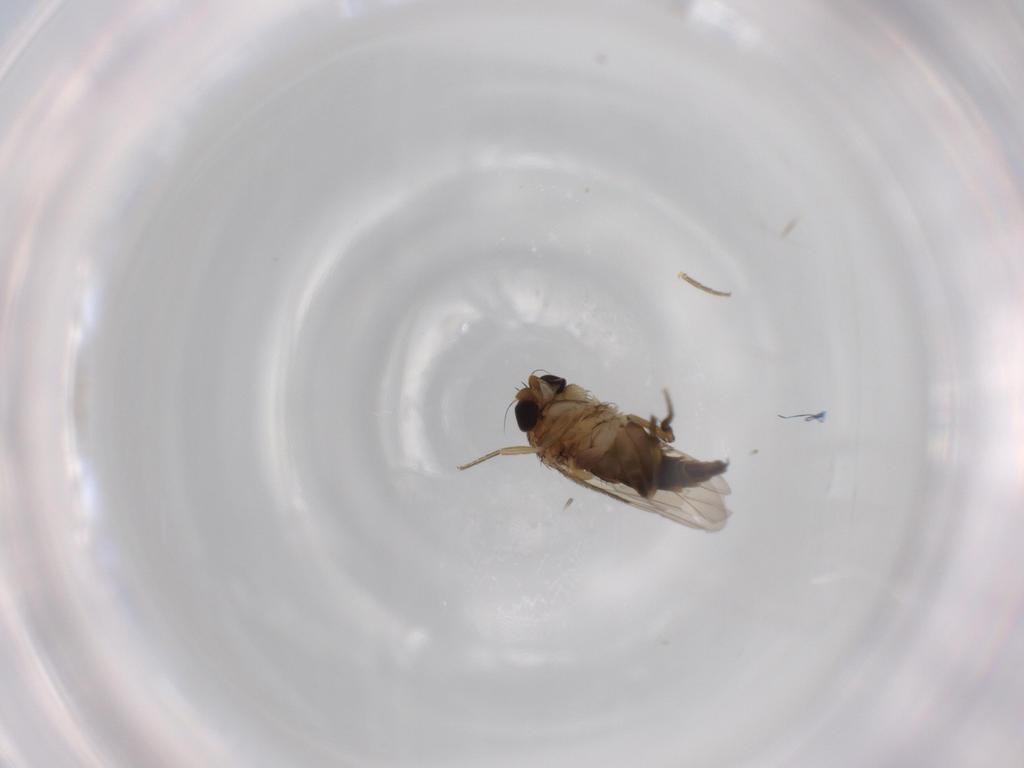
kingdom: Animalia
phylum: Arthropoda
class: Insecta
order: Diptera
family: Phoridae
